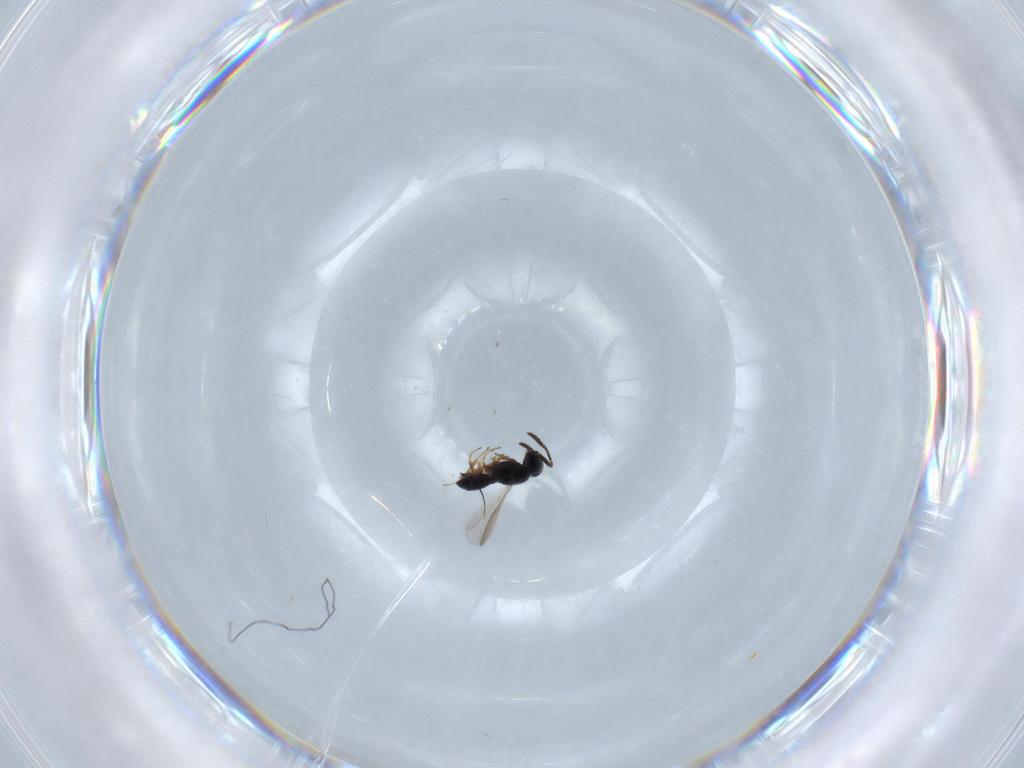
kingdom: Animalia
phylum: Arthropoda
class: Insecta
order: Hymenoptera
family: Scelionidae
